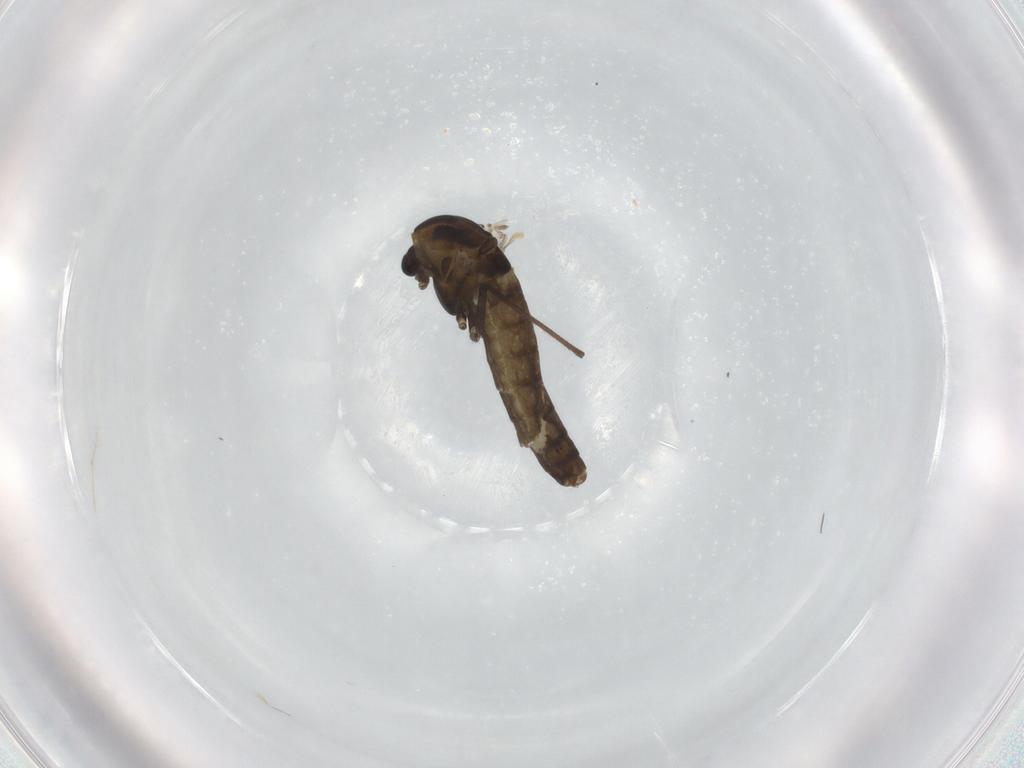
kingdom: Animalia
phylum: Arthropoda
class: Insecta
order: Diptera
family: Chironomidae
